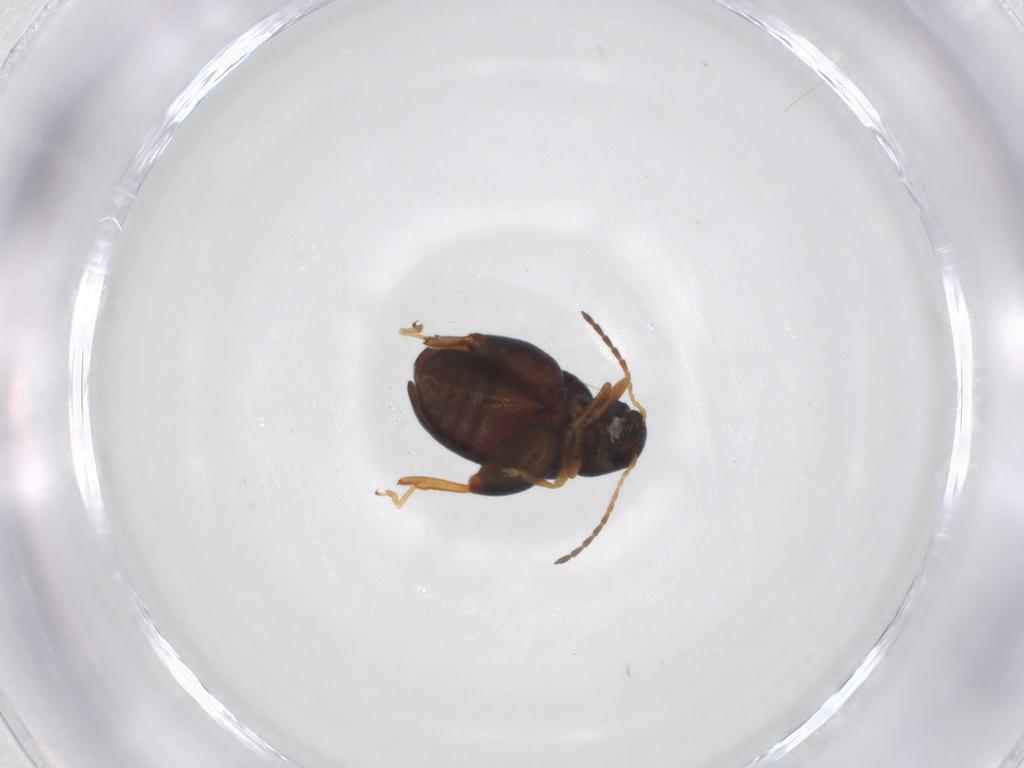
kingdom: Animalia
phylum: Arthropoda
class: Insecta
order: Coleoptera
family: Chrysomelidae
